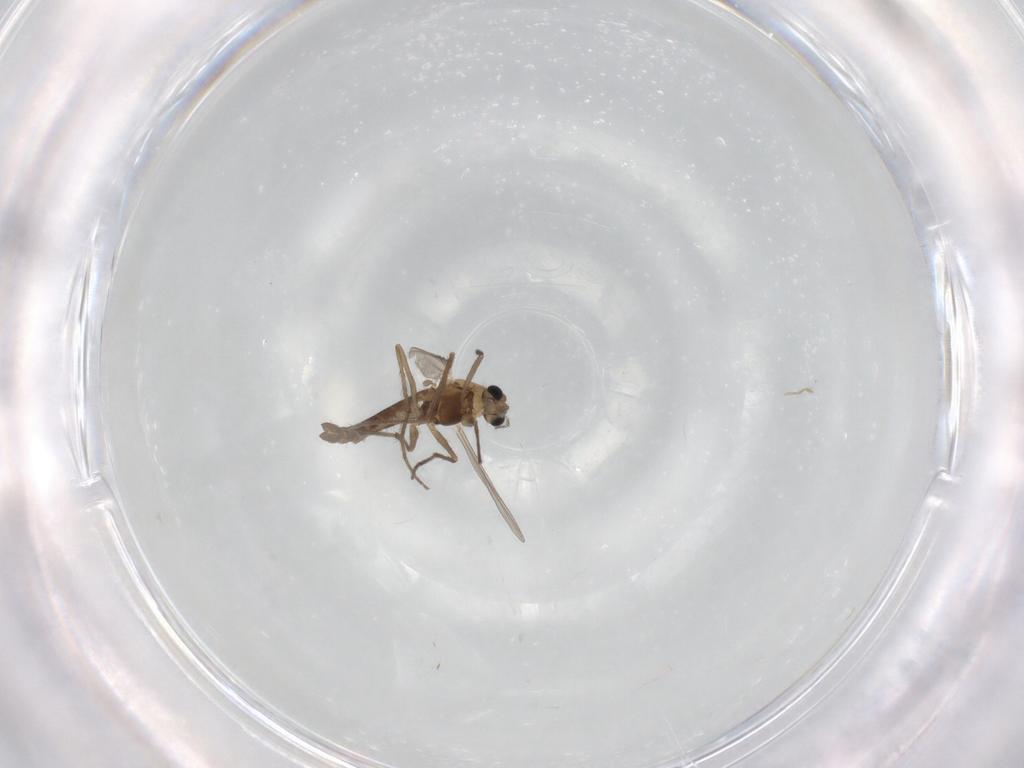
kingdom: Animalia
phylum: Arthropoda
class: Insecta
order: Diptera
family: Chironomidae
